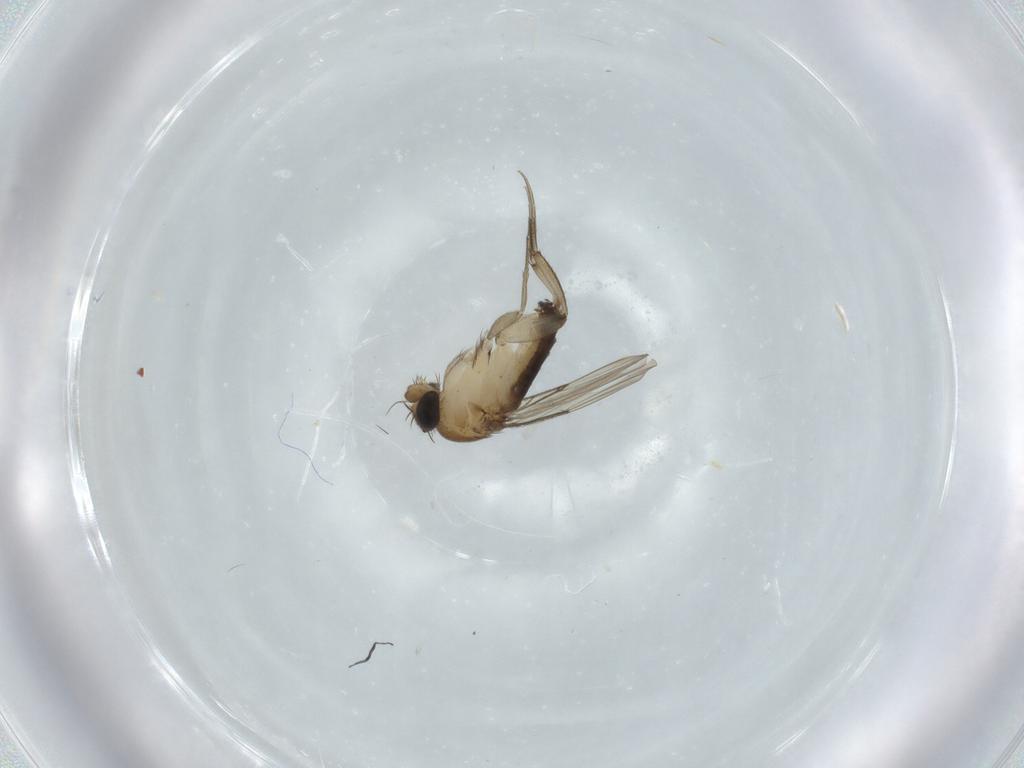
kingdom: Animalia
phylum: Arthropoda
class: Insecta
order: Diptera
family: Phoridae
